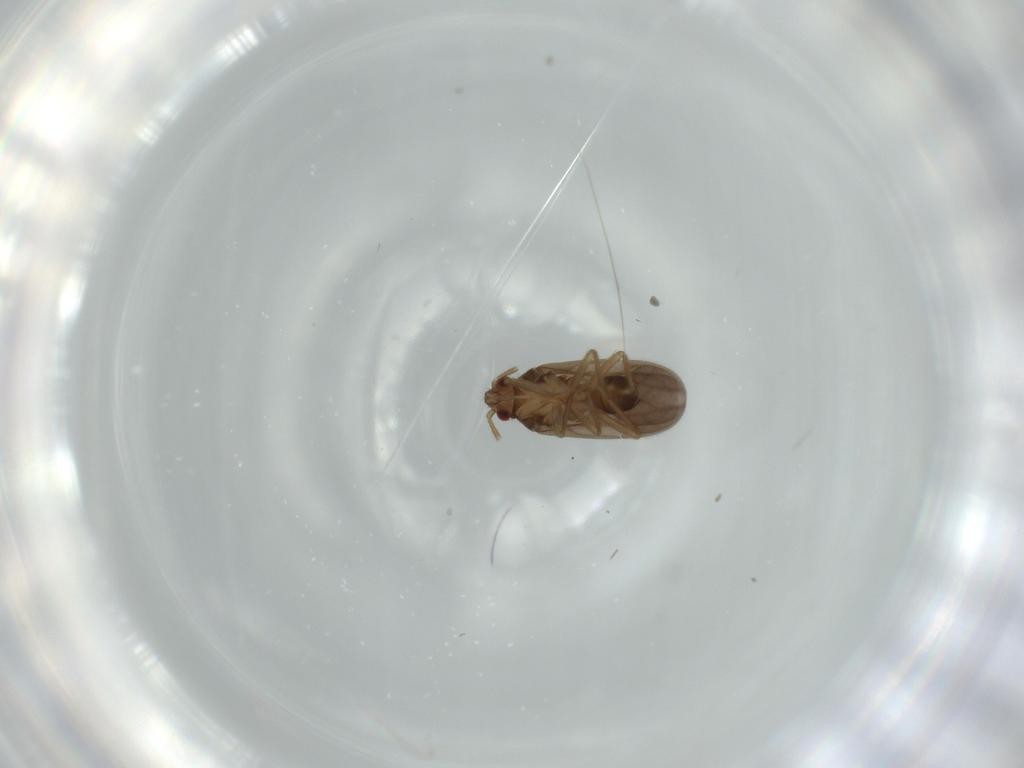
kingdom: Animalia
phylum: Arthropoda
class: Insecta
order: Hemiptera
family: Ceratocombidae
